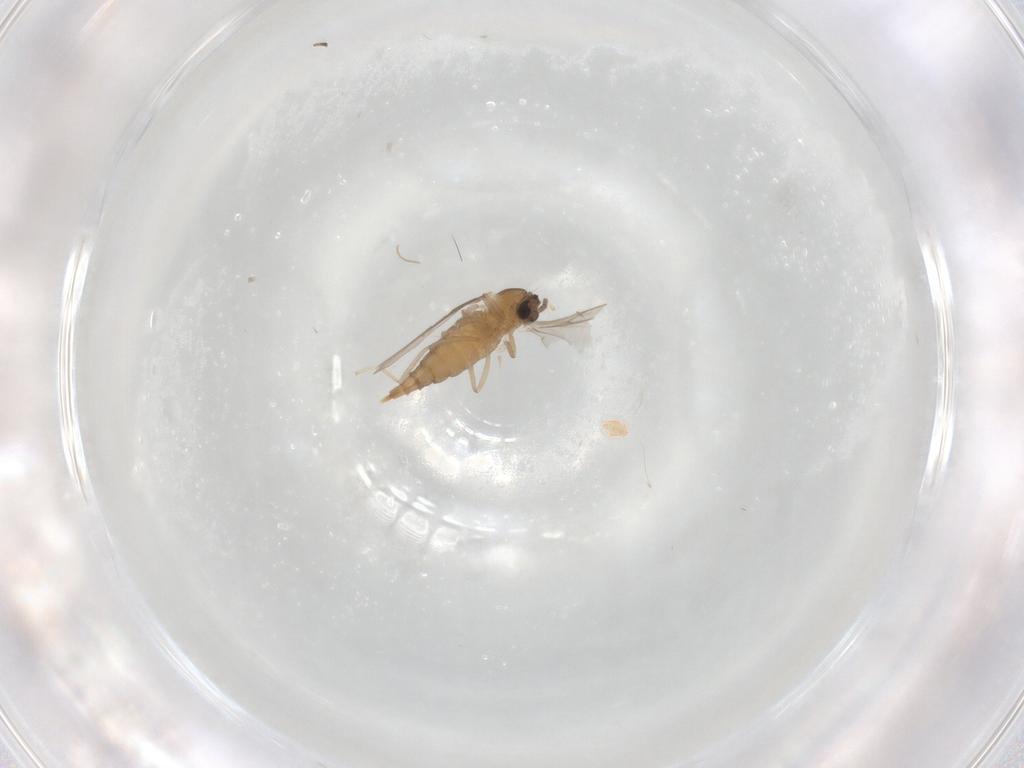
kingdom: Animalia
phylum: Arthropoda
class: Insecta
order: Diptera
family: Cecidomyiidae
